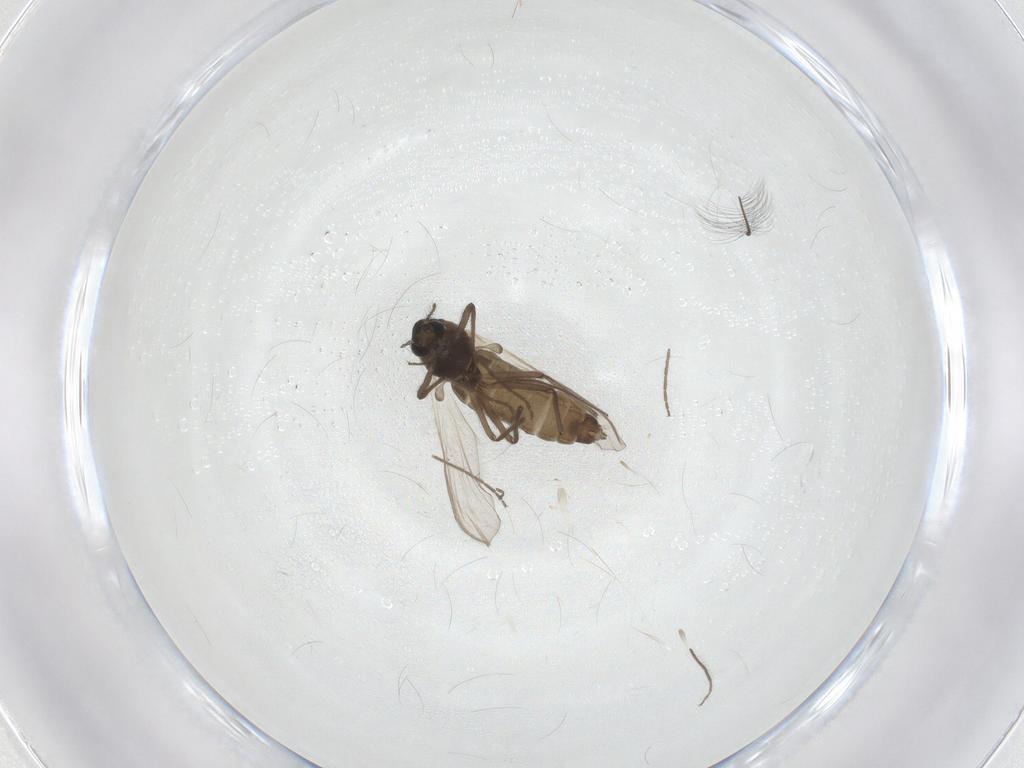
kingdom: Animalia
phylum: Arthropoda
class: Insecta
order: Diptera
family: Chironomidae
